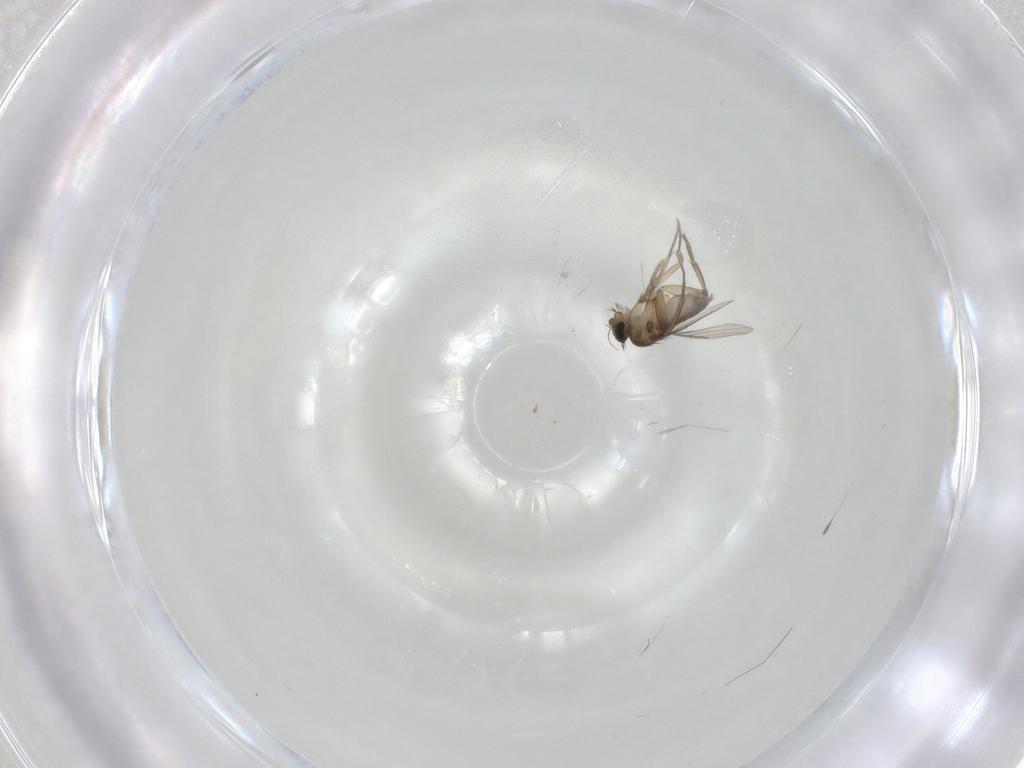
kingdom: Animalia
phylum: Arthropoda
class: Insecta
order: Diptera
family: Phoridae
